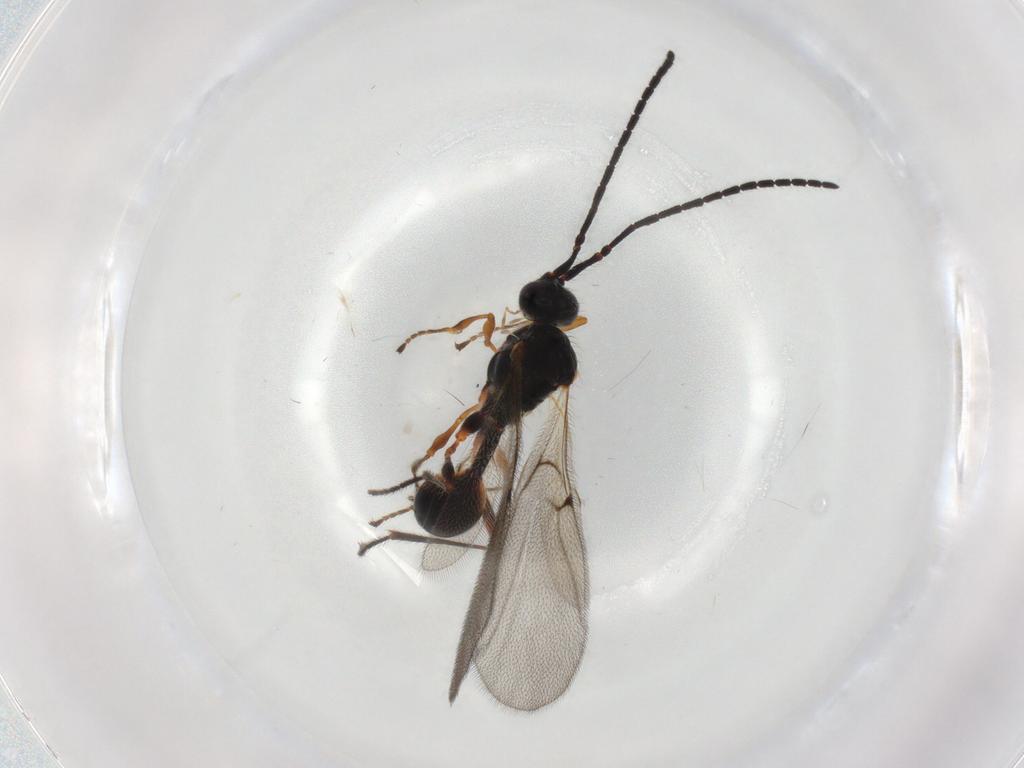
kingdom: Animalia
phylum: Arthropoda
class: Insecta
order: Hymenoptera
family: Diapriidae
